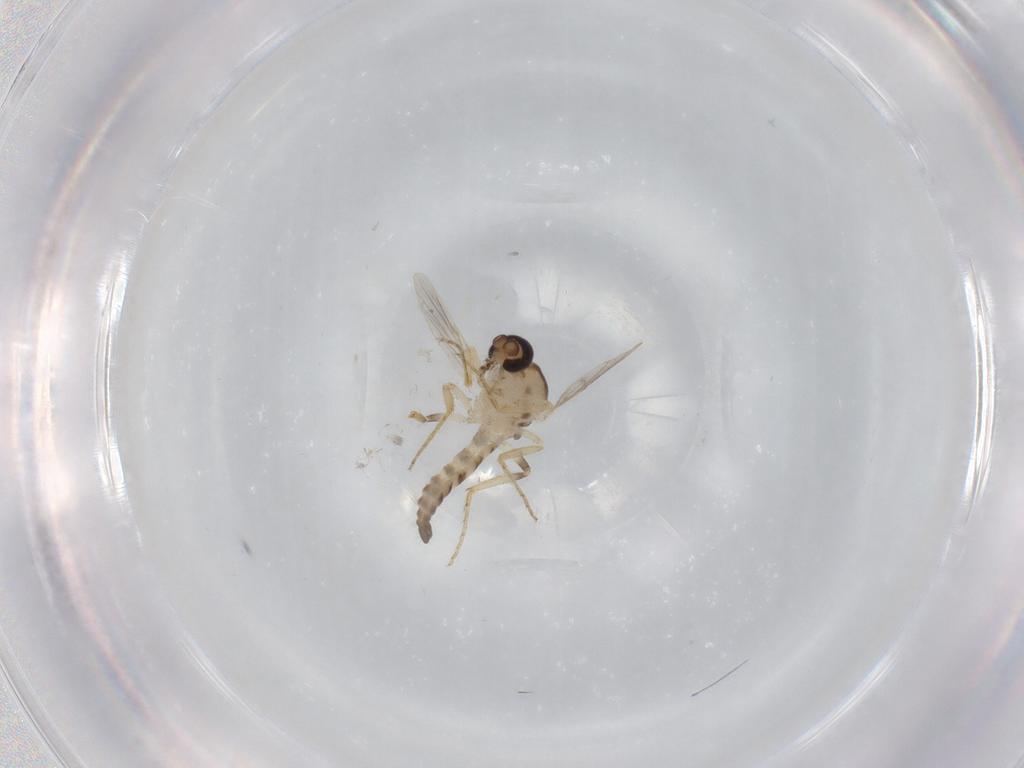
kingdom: Animalia
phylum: Arthropoda
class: Insecta
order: Diptera
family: Ceratopogonidae
